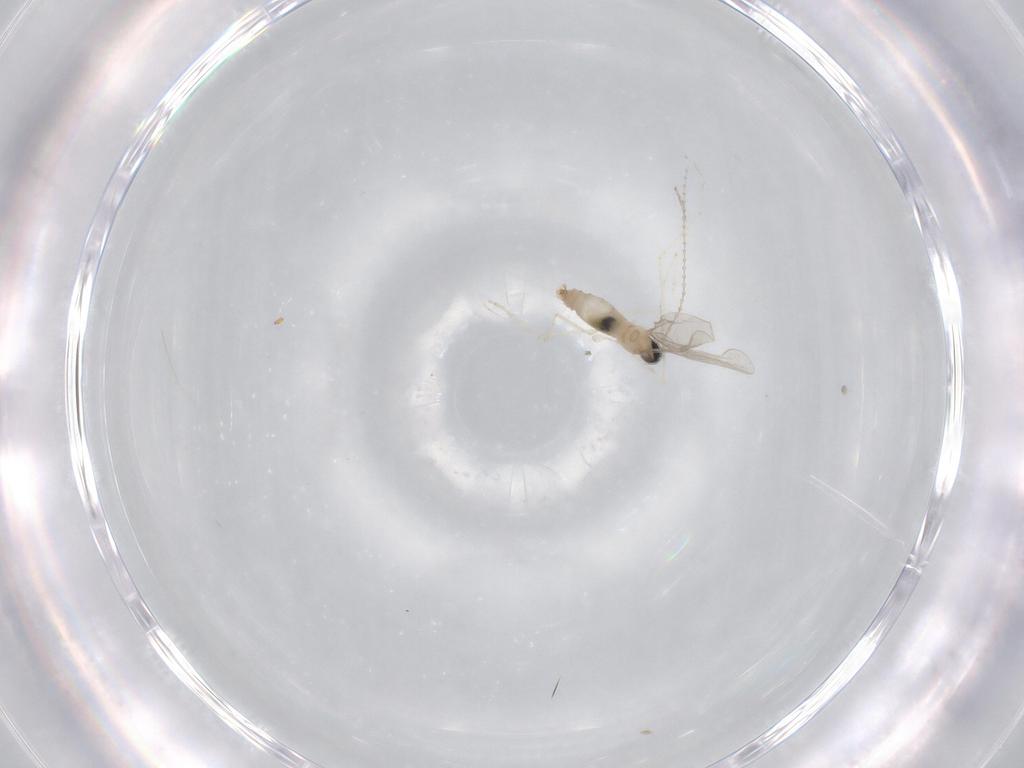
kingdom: Animalia
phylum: Arthropoda
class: Insecta
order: Diptera
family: Cecidomyiidae
